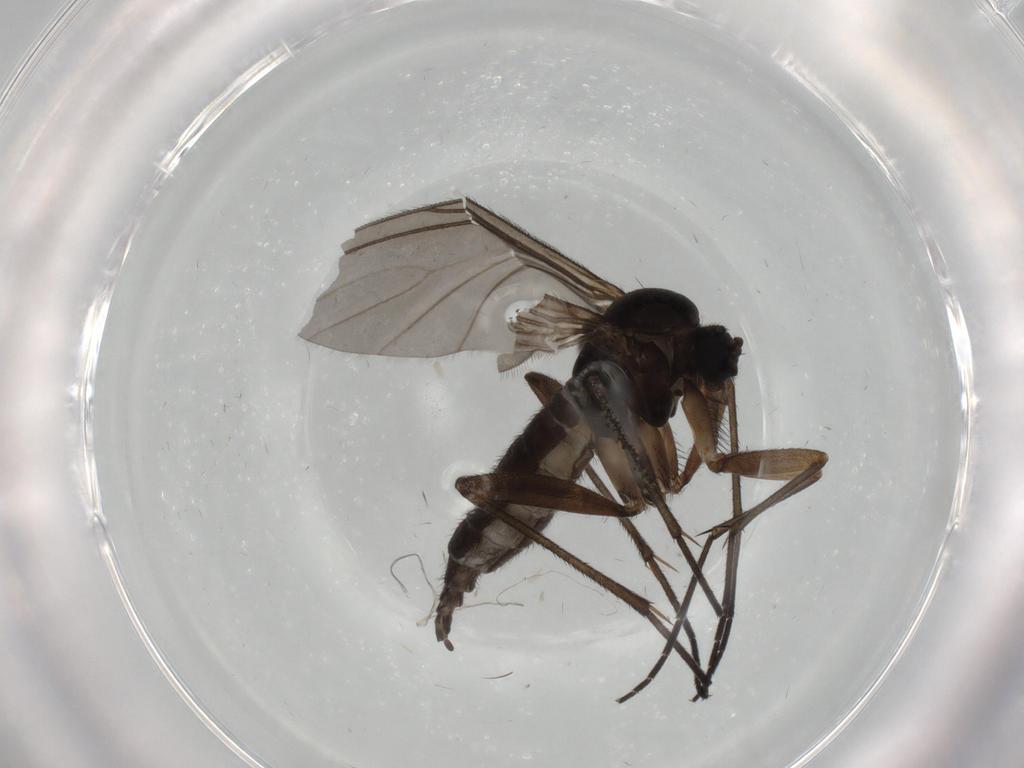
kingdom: Animalia
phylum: Arthropoda
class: Insecta
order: Diptera
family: Sciaridae
